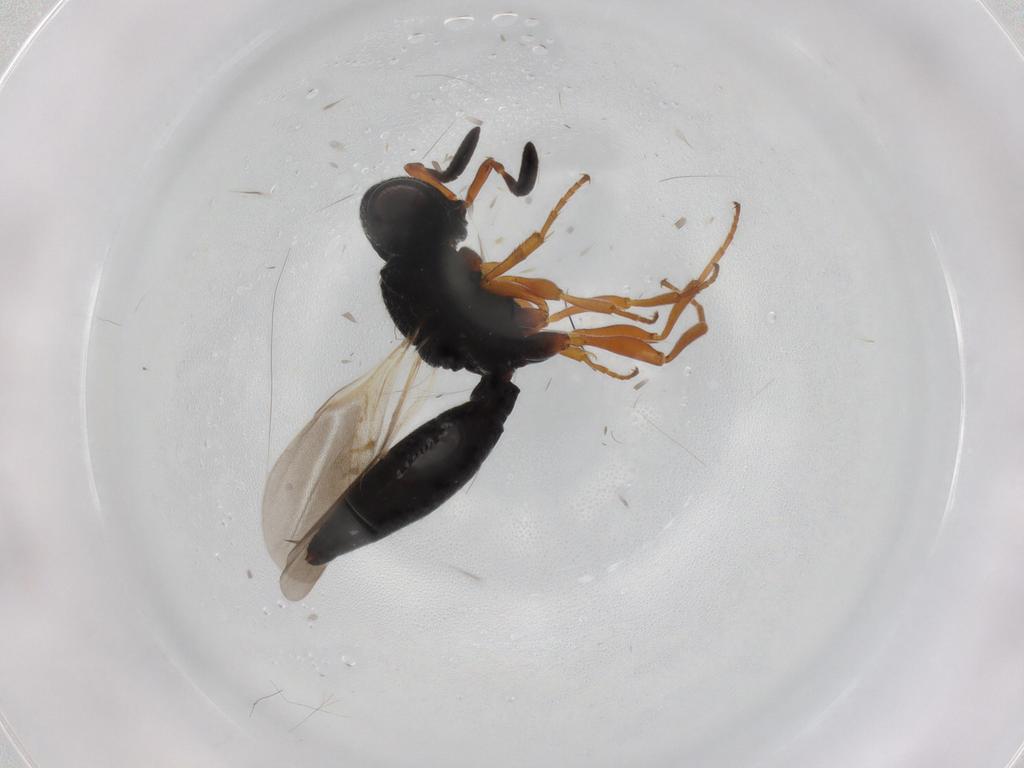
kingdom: Animalia
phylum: Arthropoda
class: Insecta
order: Hymenoptera
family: Scelionidae
